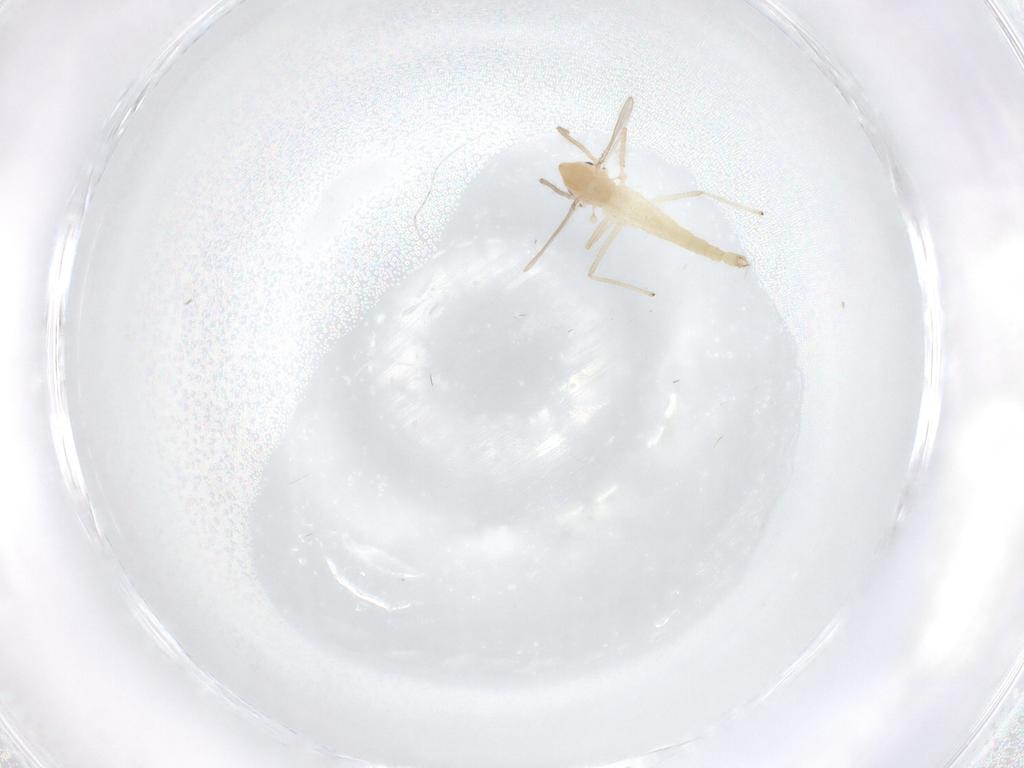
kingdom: Animalia
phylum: Arthropoda
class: Insecta
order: Diptera
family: Chironomidae
